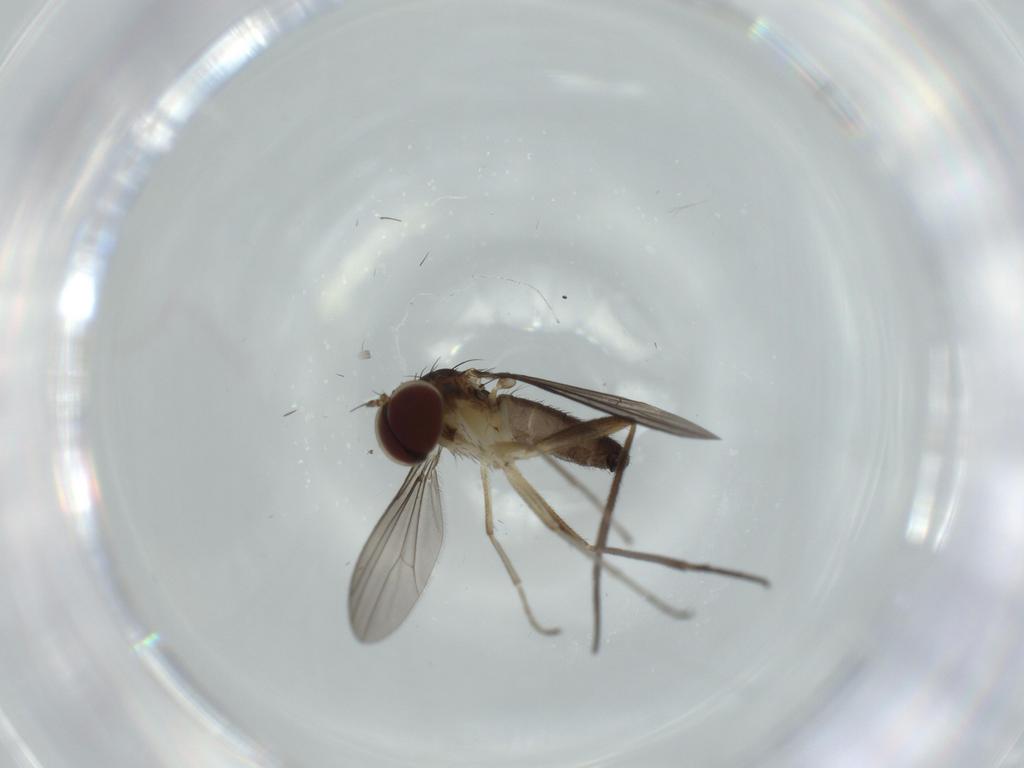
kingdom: Animalia
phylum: Arthropoda
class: Insecta
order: Diptera
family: Dolichopodidae
